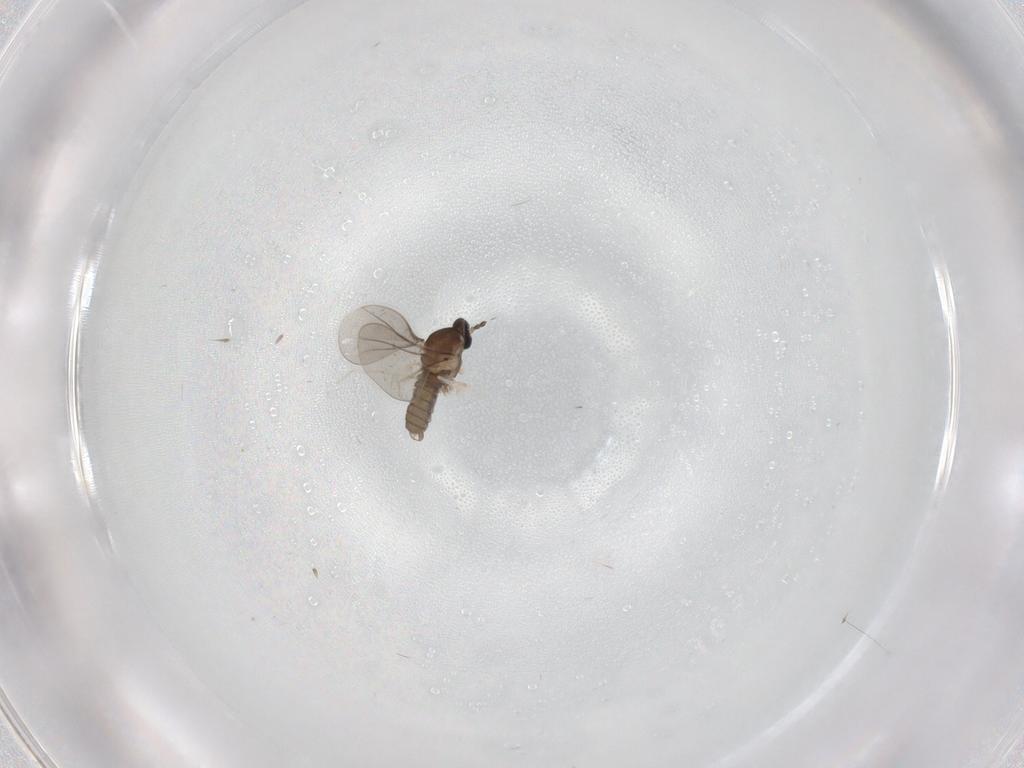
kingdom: Animalia
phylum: Arthropoda
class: Insecta
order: Diptera
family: Cecidomyiidae
